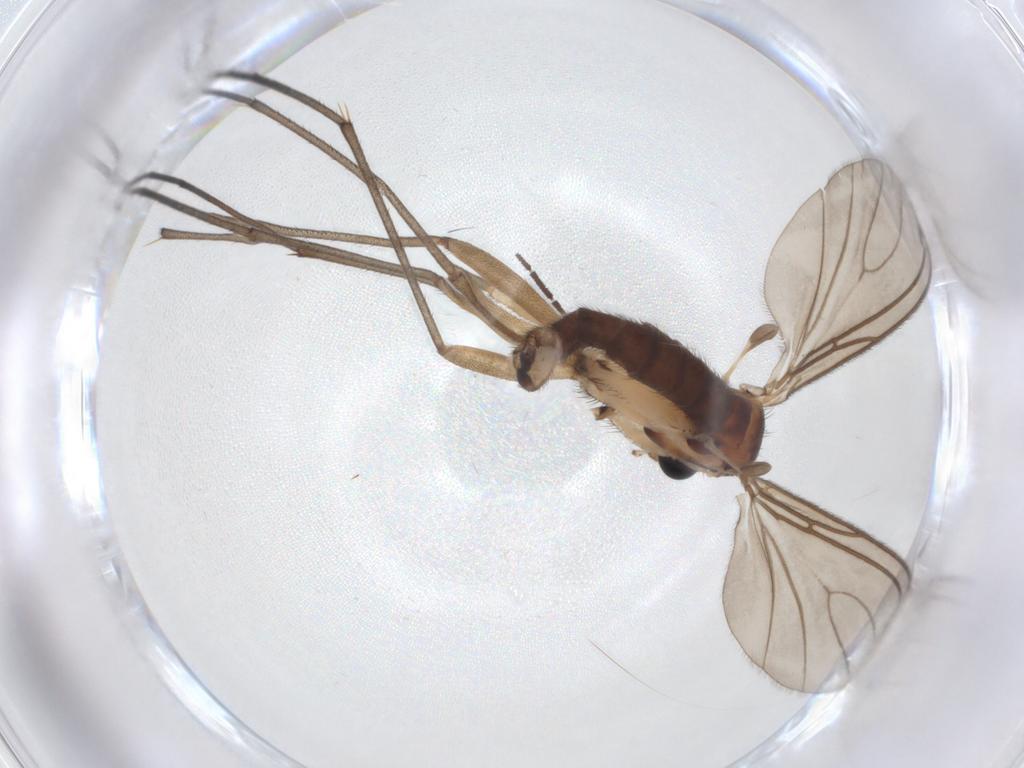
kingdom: Animalia
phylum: Arthropoda
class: Insecta
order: Diptera
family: Sciaridae
